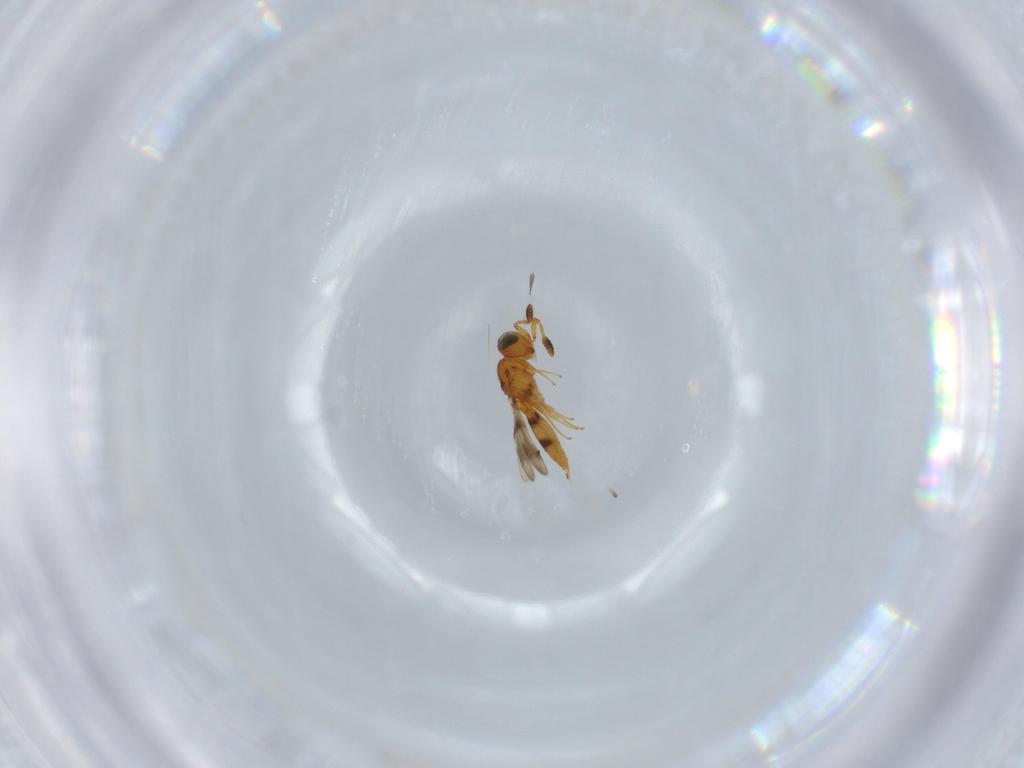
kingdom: Animalia
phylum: Arthropoda
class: Insecta
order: Hymenoptera
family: Scelionidae
